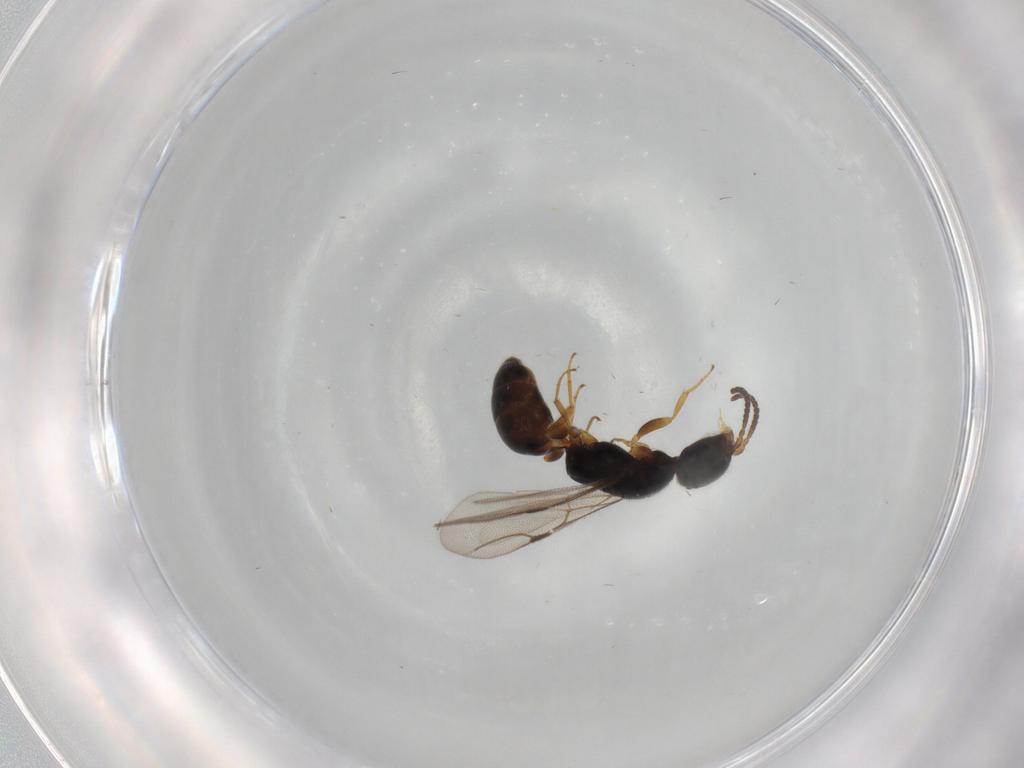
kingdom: Animalia
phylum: Arthropoda
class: Insecta
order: Hymenoptera
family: Bethylidae
